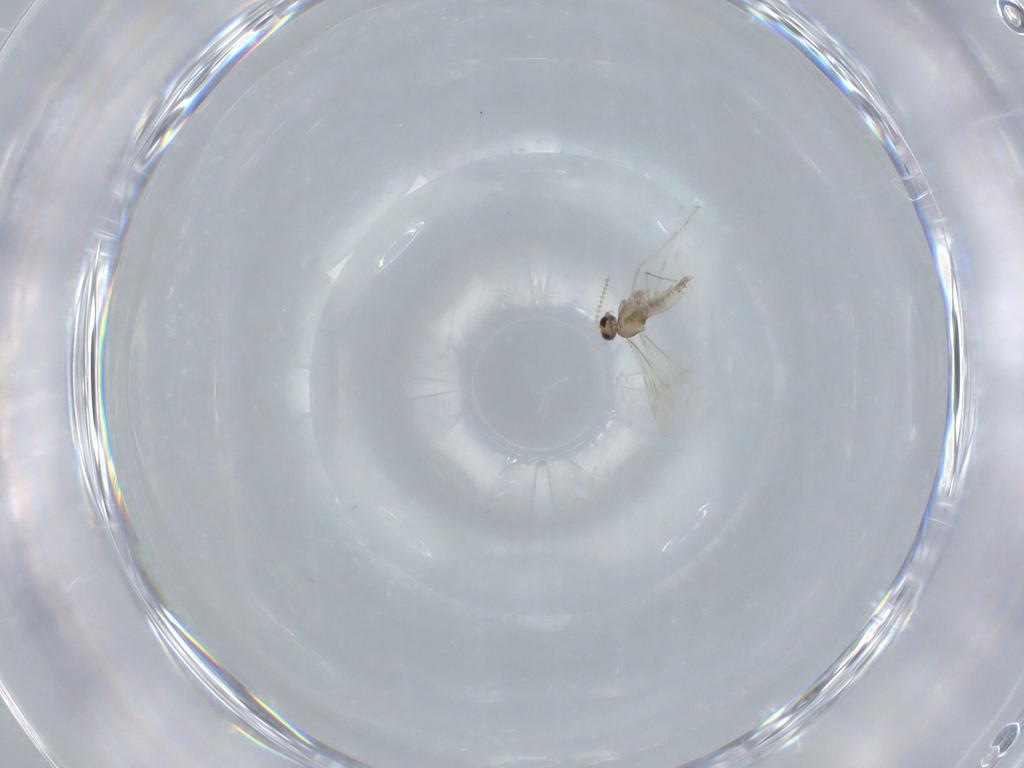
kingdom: Animalia
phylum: Arthropoda
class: Insecta
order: Diptera
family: Cecidomyiidae
